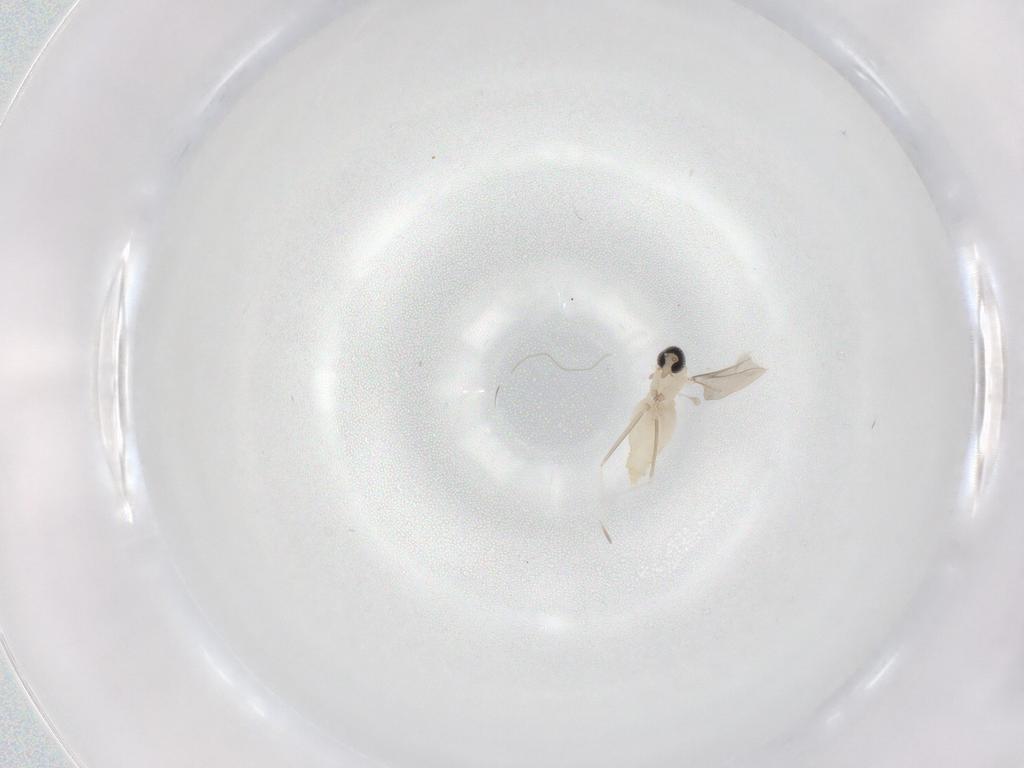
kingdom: Animalia
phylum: Arthropoda
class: Insecta
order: Diptera
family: Cecidomyiidae
